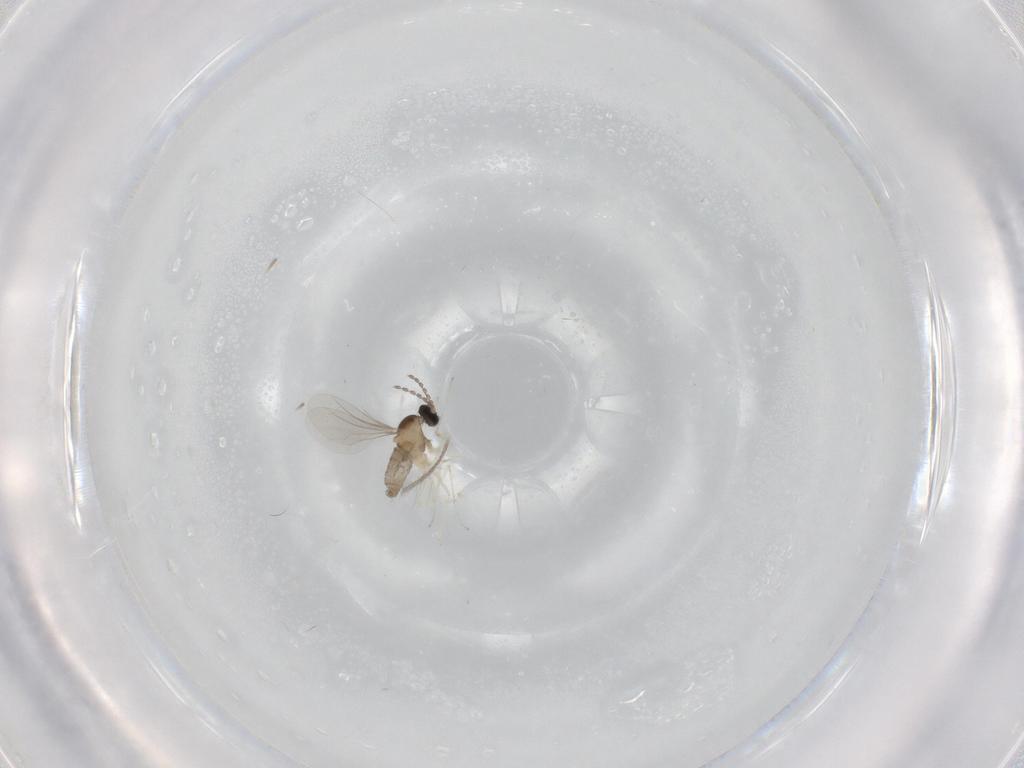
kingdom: Animalia
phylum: Arthropoda
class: Insecta
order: Diptera
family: Cecidomyiidae
